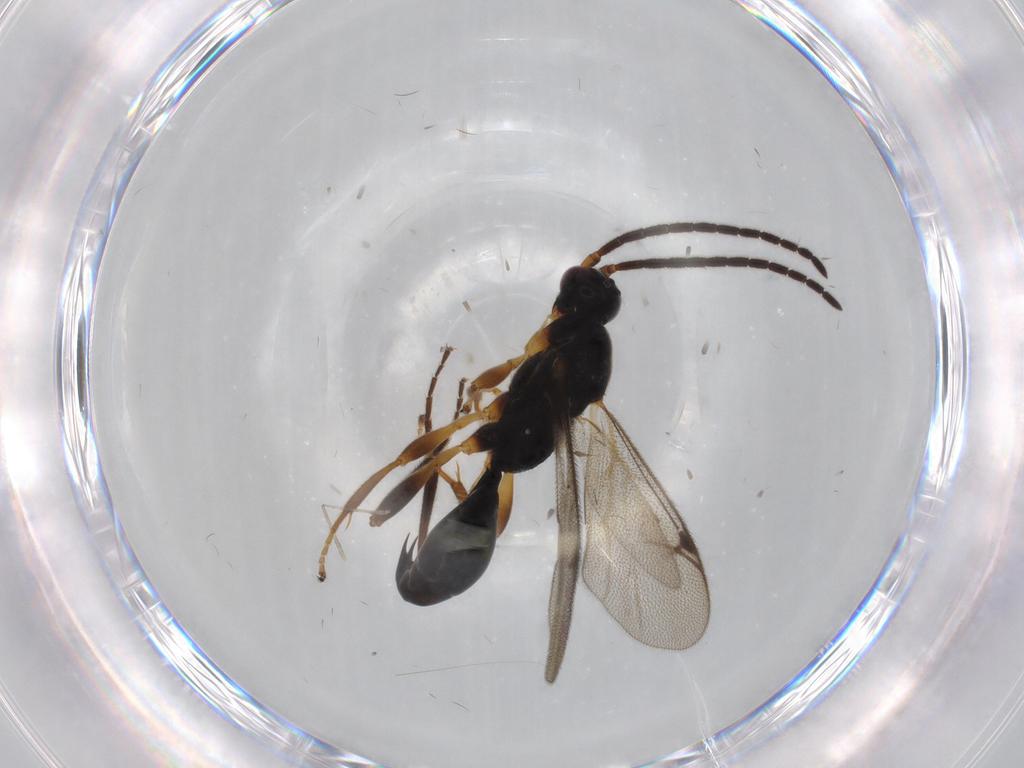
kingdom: Animalia
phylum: Arthropoda
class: Insecta
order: Hymenoptera
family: Proctotrupidae
